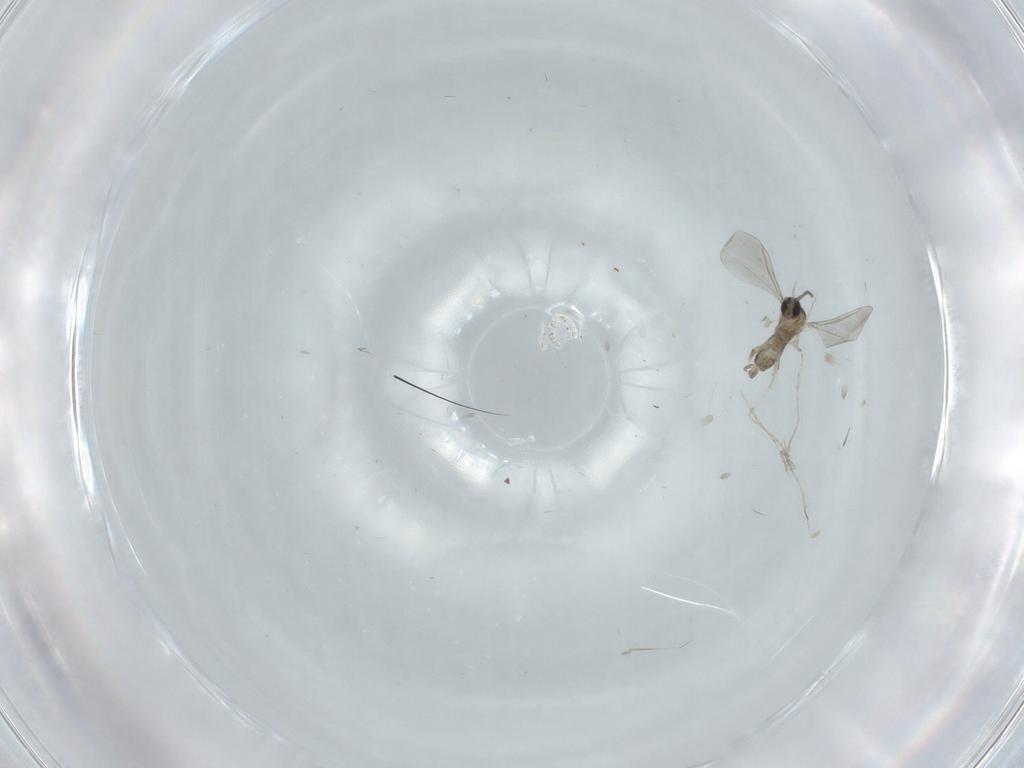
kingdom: Animalia
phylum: Arthropoda
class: Insecta
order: Diptera
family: Cecidomyiidae
